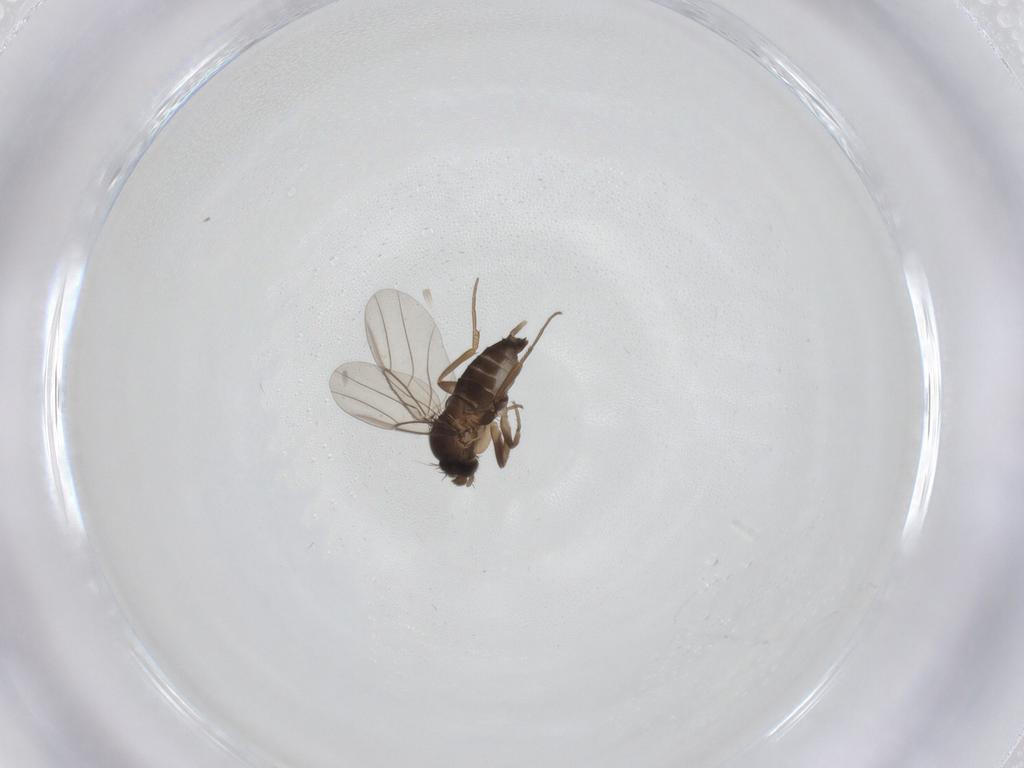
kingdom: Animalia
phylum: Arthropoda
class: Insecta
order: Diptera
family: Phoridae
